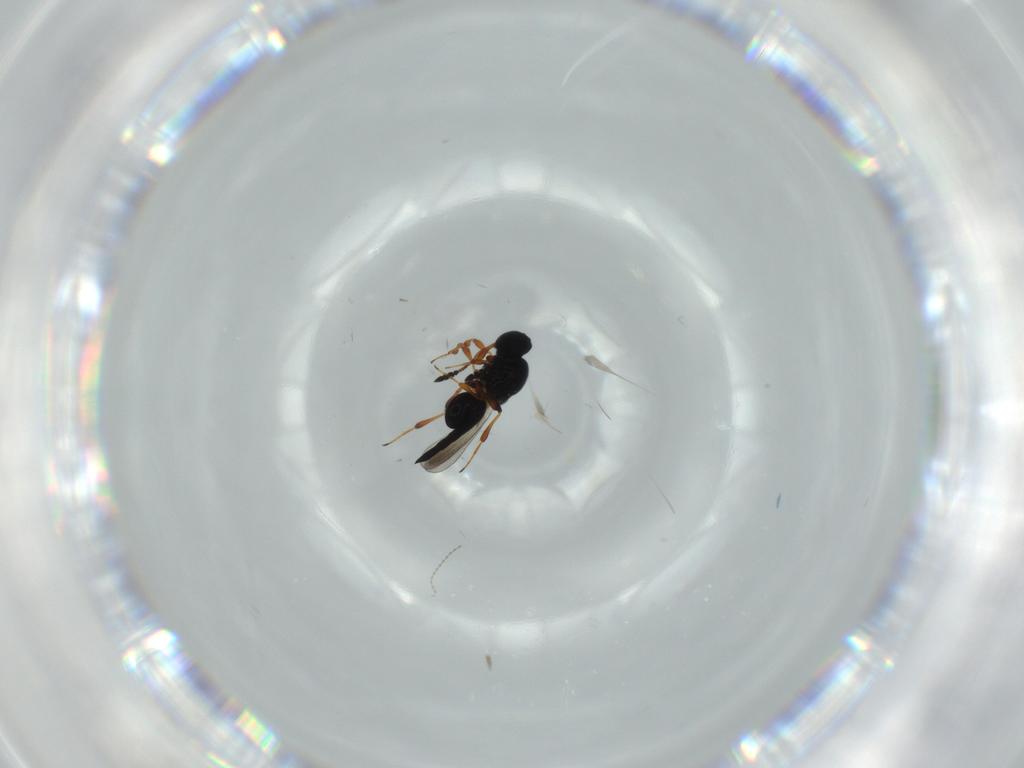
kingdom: Animalia
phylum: Arthropoda
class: Insecta
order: Hymenoptera
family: Platygastridae
